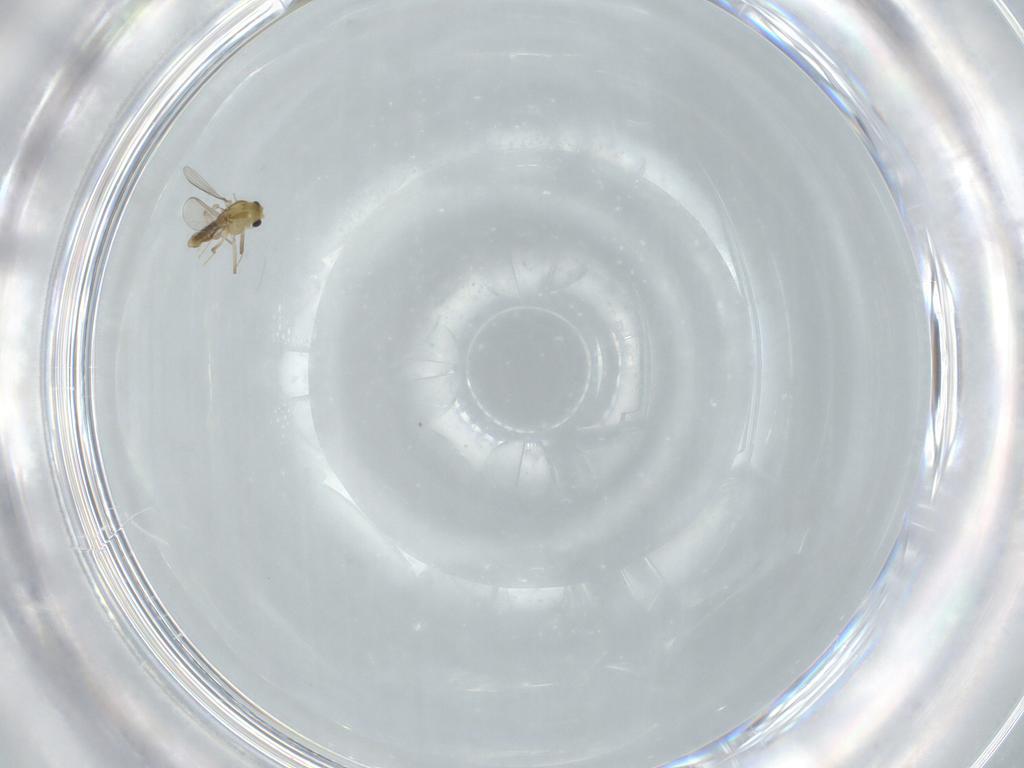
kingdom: Animalia
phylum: Arthropoda
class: Insecta
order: Diptera
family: Chironomidae
